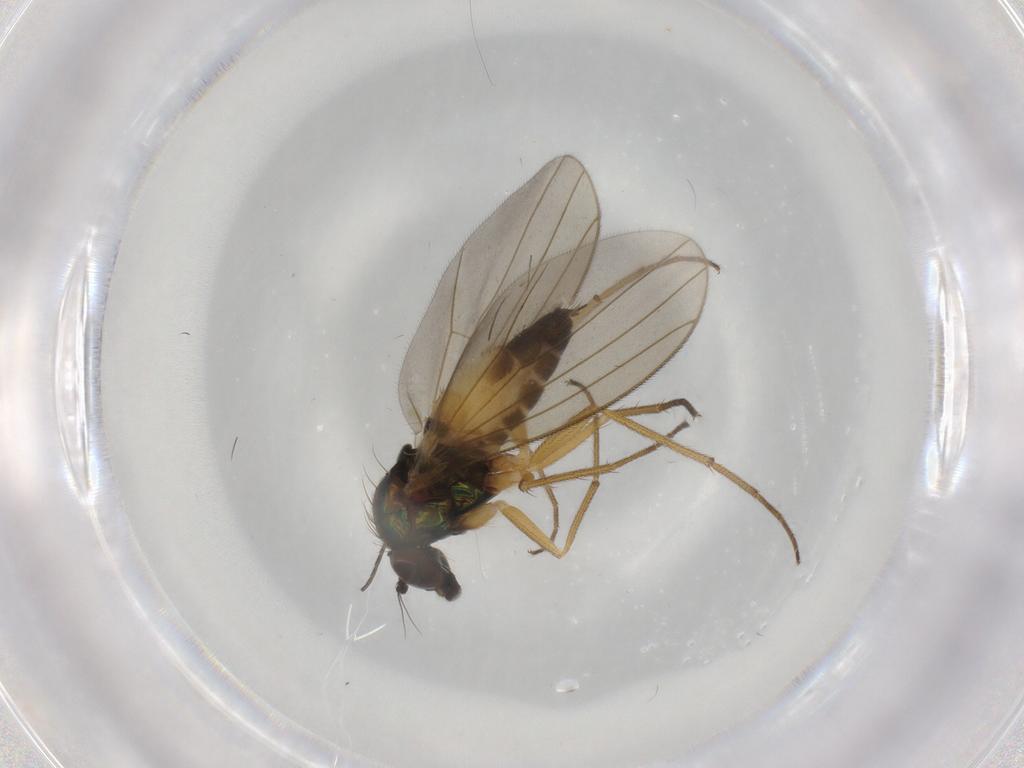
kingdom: Animalia
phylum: Arthropoda
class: Insecta
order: Diptera
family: Dolichopodidae
